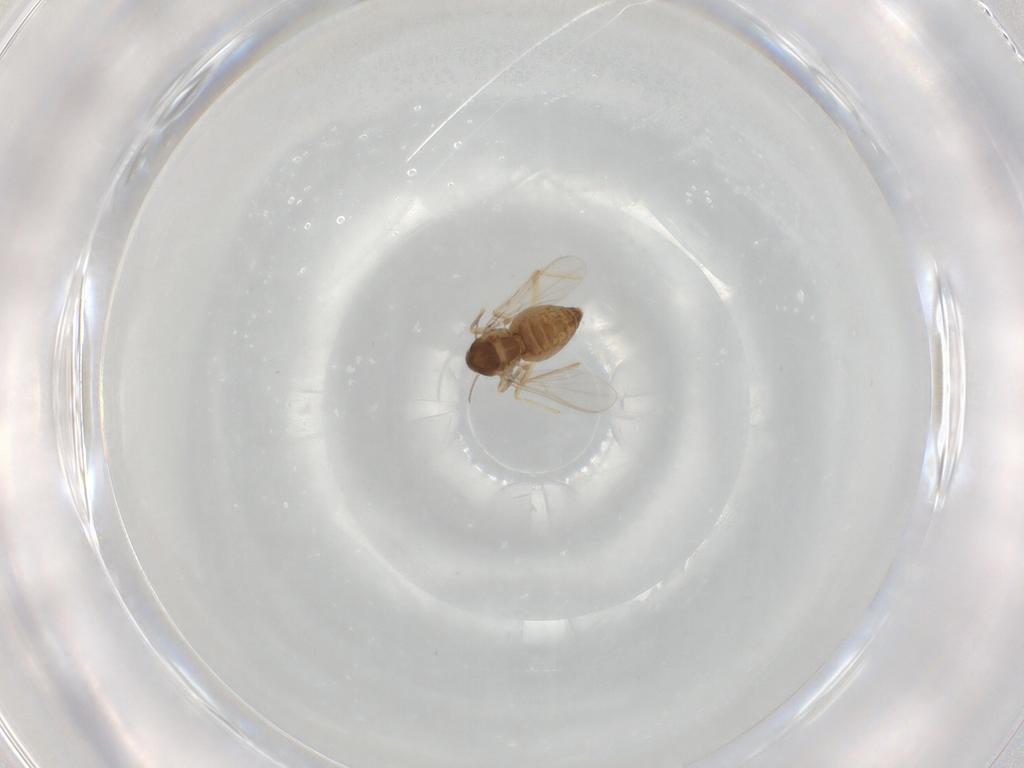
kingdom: Animalia
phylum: Arthropoda
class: Insecta
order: Diptera
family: Chironomidae
